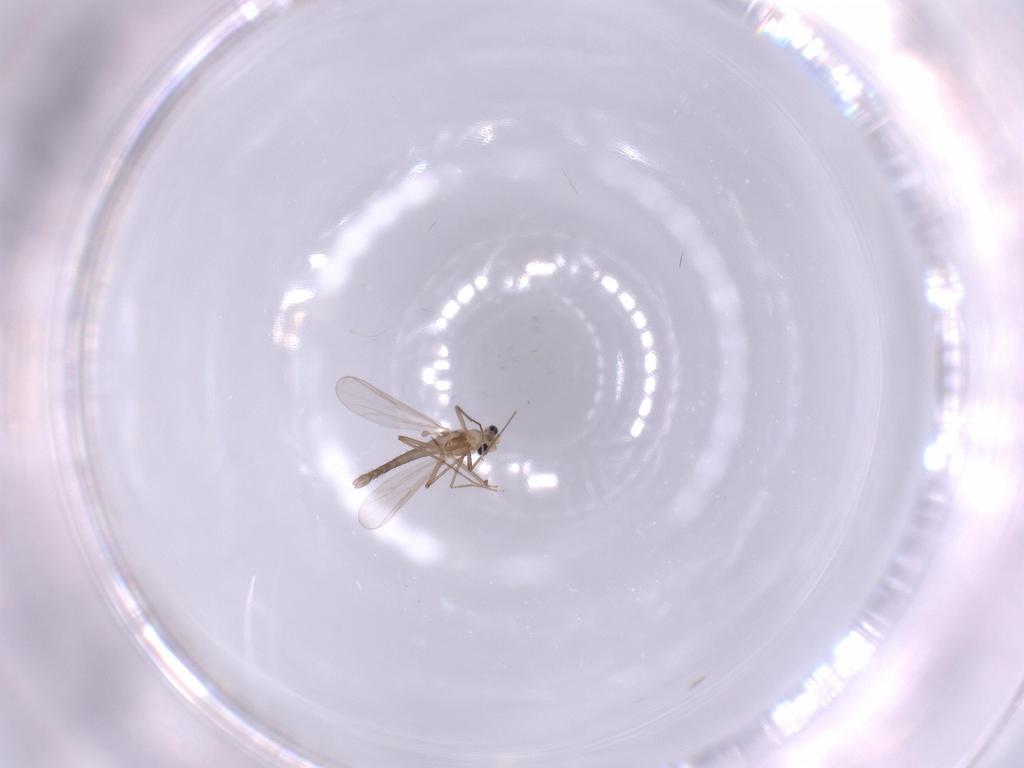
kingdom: Animalia
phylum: Arthropoda
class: Insecta
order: Diptera
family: Chironomidae
